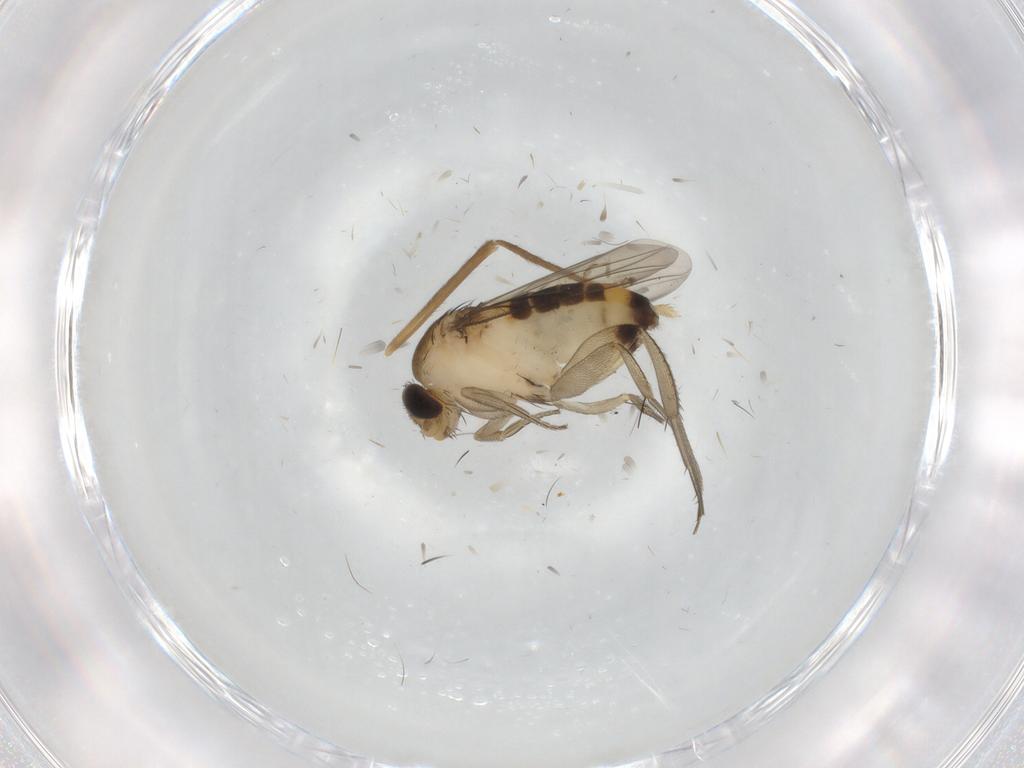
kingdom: Animalia
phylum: Arthropoda
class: Insecta
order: Diptera
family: Phoridae
